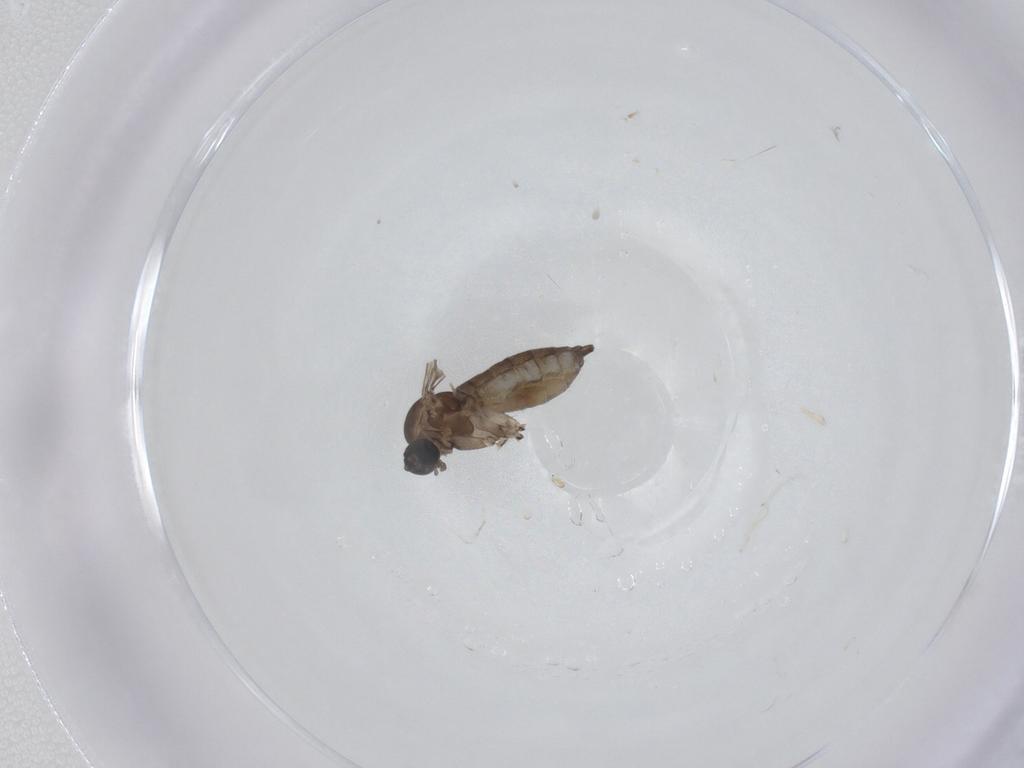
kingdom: Animalia
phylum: Arthropoda
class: Insecta
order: Diptera
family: Sciaridae
